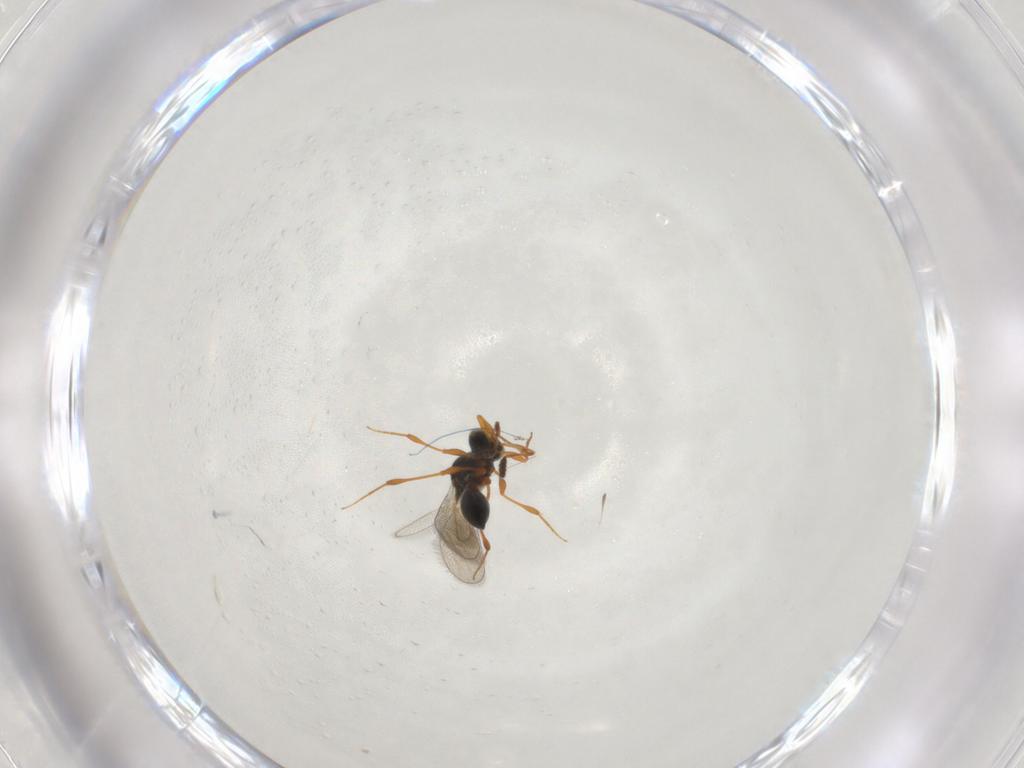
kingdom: Animalia
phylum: Arthropoda
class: Insecta
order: Hymenoptera
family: Platygastridae
